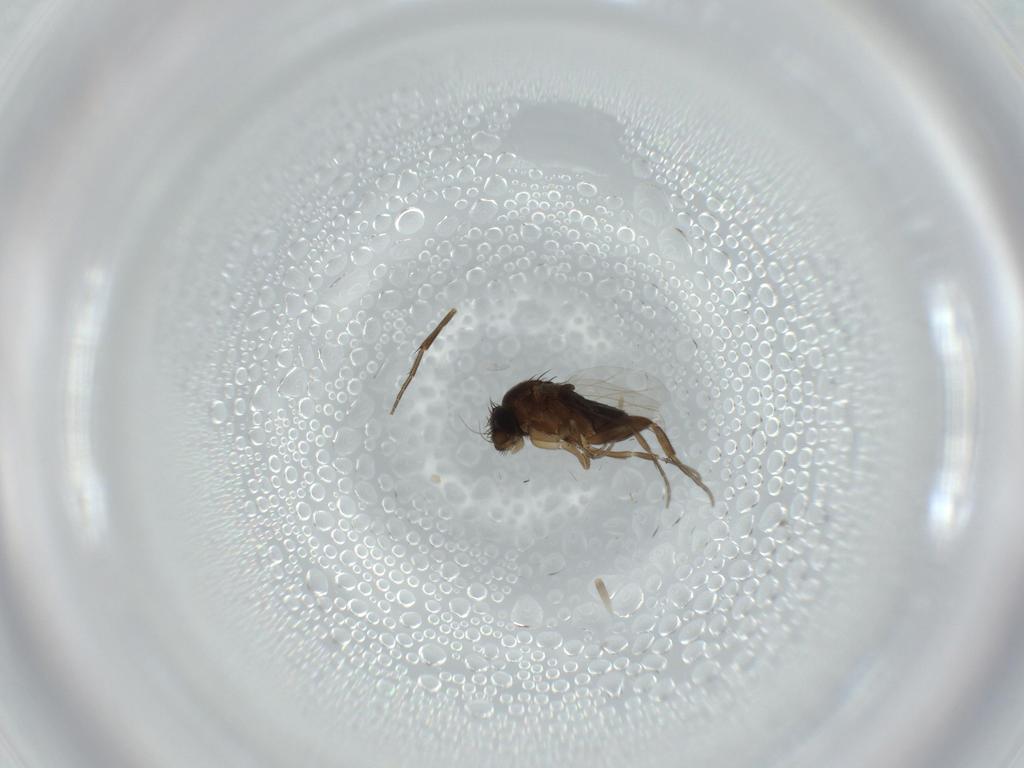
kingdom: Animalia
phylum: Arthropoda
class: Insecta
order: Diptera
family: Phoridae
